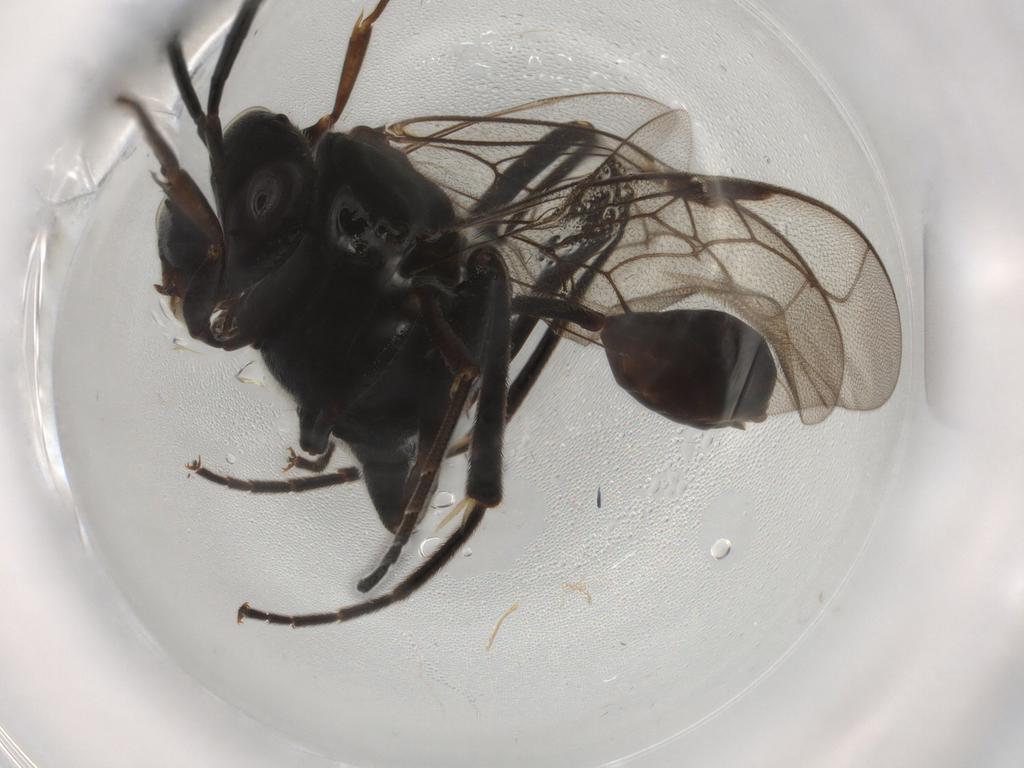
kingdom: Animalia
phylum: Arthropoda
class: Insecta
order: Hymenoptera
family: Evaniidae
